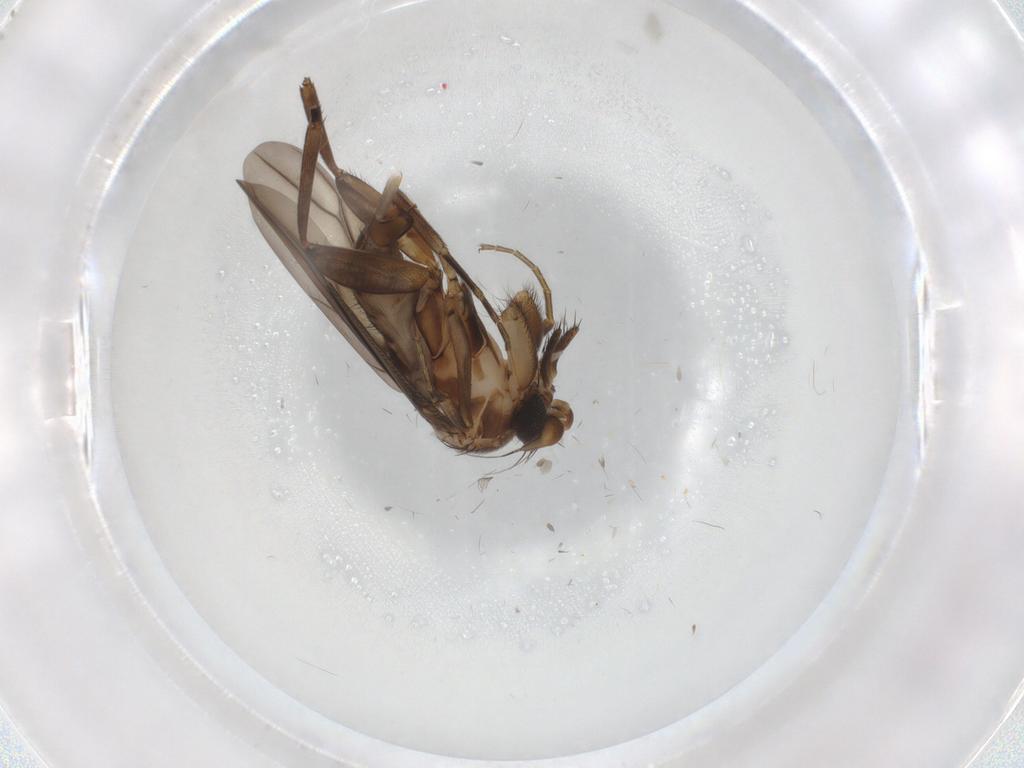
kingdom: Animalia
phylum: Arthropoda
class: Insecta
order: Diptera
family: Phoridae
